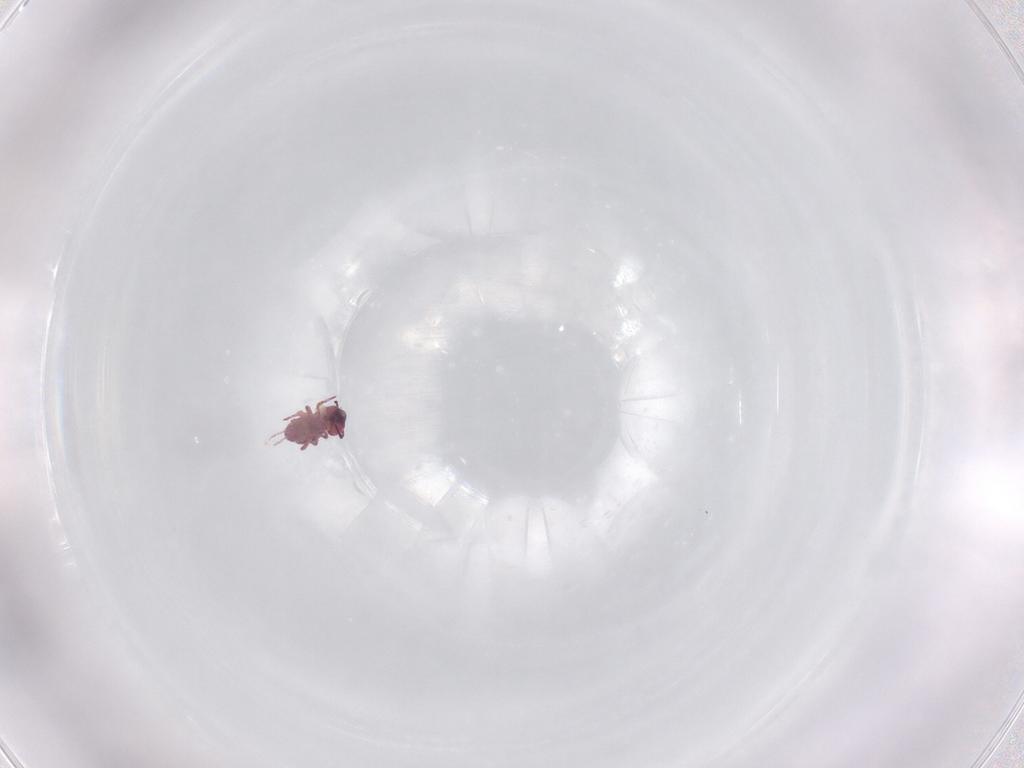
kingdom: Animalia
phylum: Arthropoda
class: Collembola
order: Symphypleona
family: Sminthurididae
